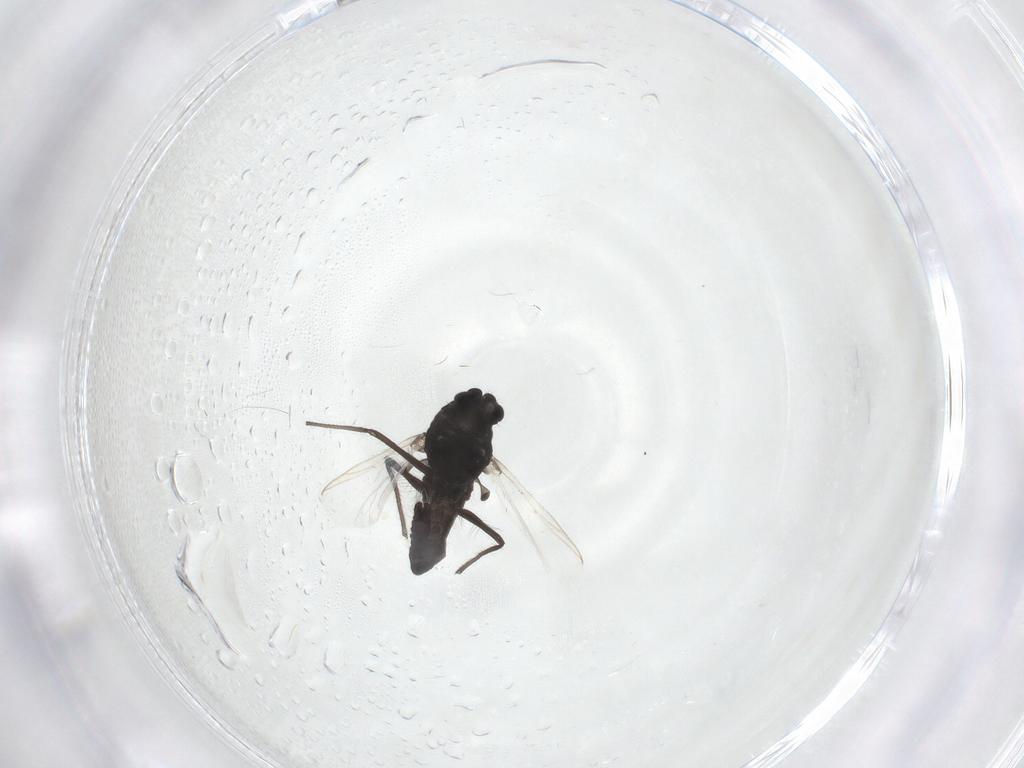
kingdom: Animalia
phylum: Arthropoda
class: Insecta
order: Diptera
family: Chironomidae
